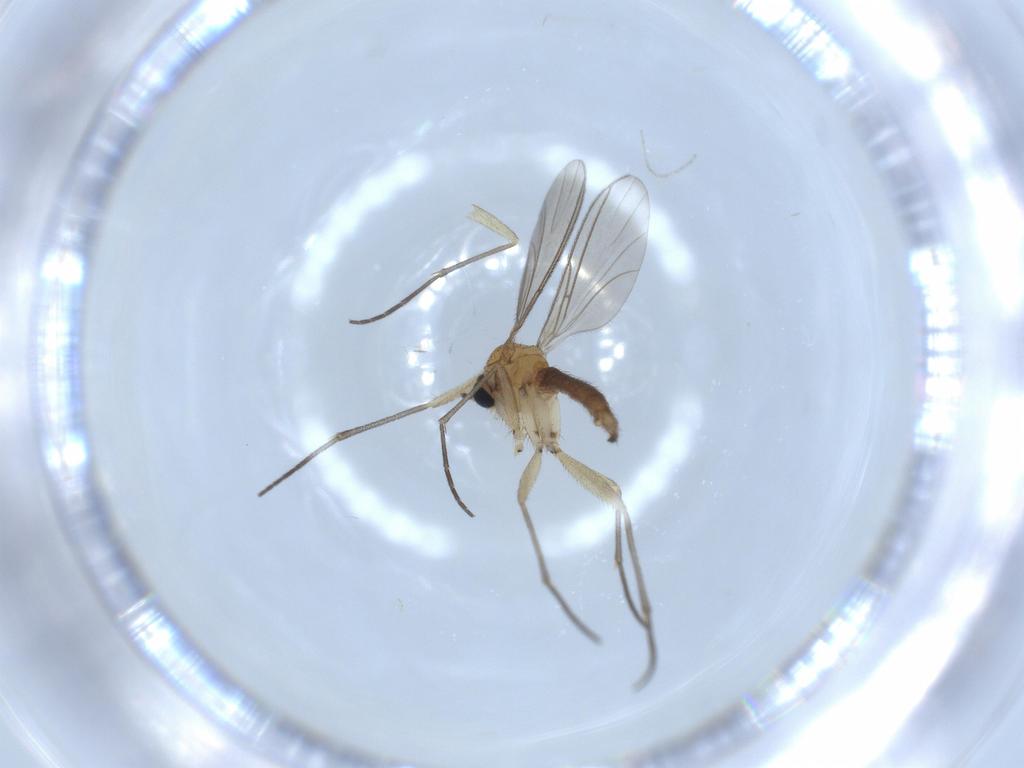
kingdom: Animalia
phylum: Arthropoda
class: Insecta
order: Diptera
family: Sciaridae
